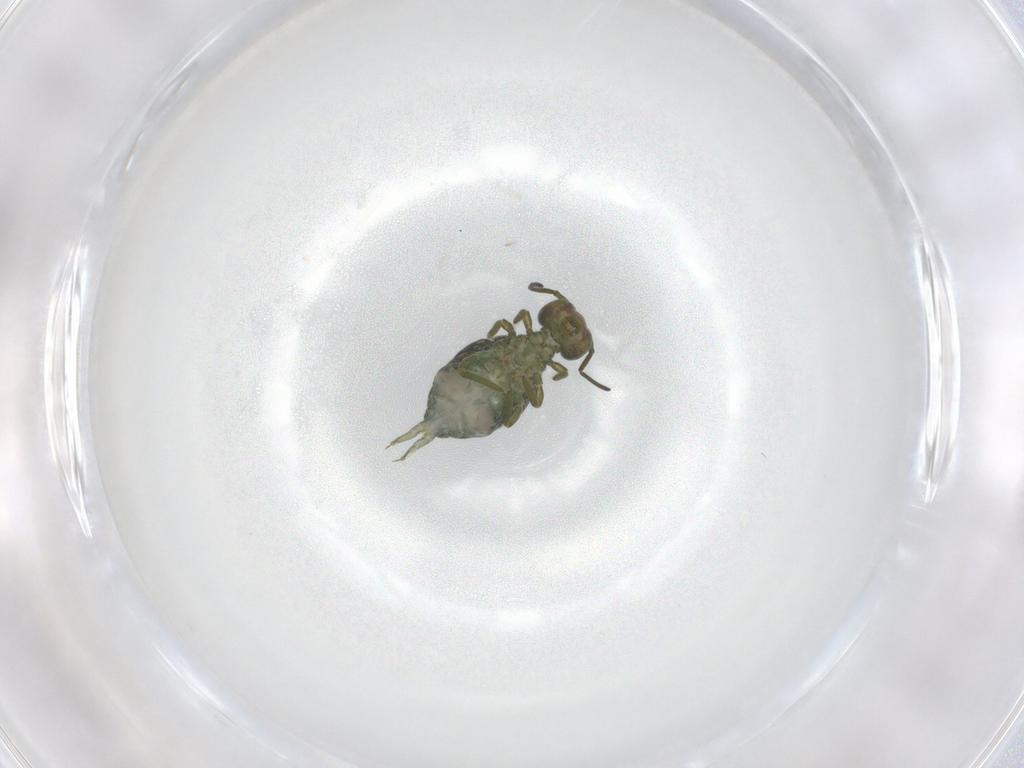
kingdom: Animalia
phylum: Arthropoda
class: Collembola
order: Symphypleona
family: Sminthuridae
